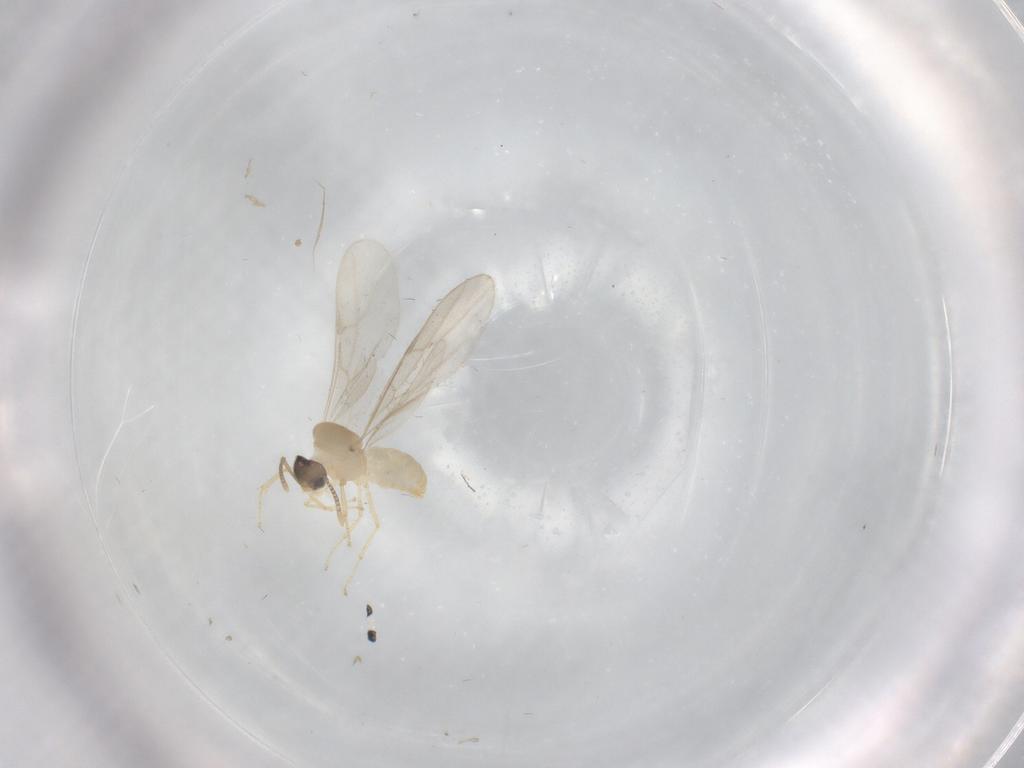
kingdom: Animalia
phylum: Arthropoda
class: Insecta
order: Hymenoptera
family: Formicidae
